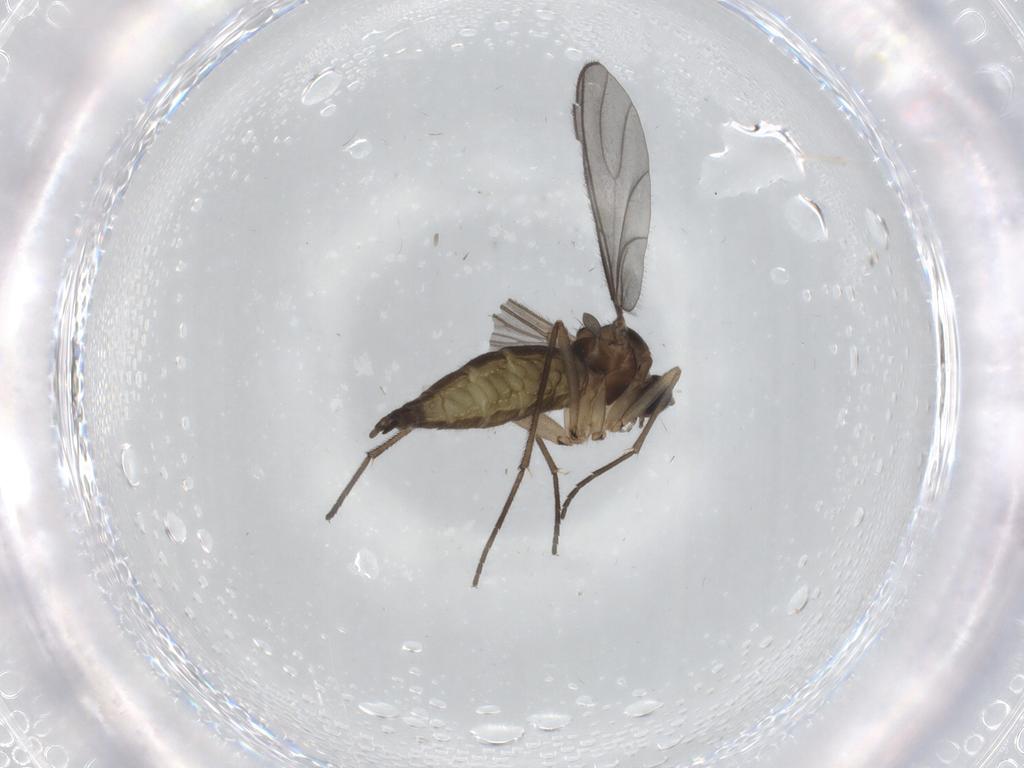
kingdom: Animalia
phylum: Arthropoda
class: Insecta
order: Diptera
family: Sciaridae
